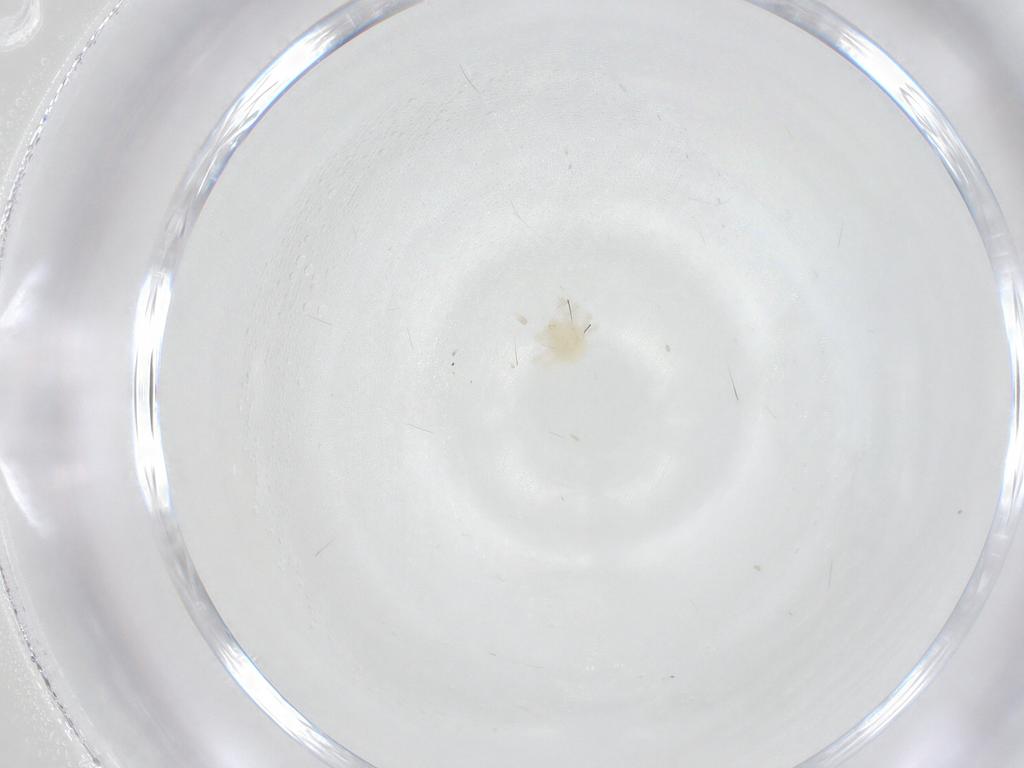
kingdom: Animalia
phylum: Arthropoda
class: Arachnida
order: Trombidiformes
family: Anystidae
